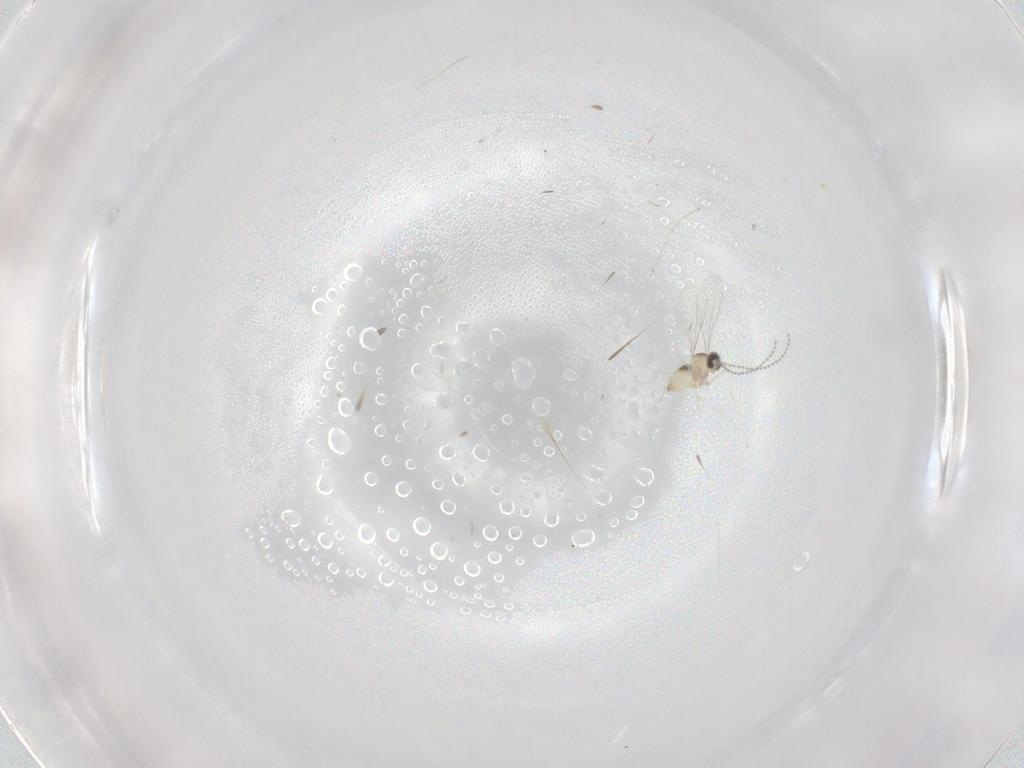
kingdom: Animalia
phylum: Arthropoda
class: Insecta
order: Diptera
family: Cecidomyiidae
